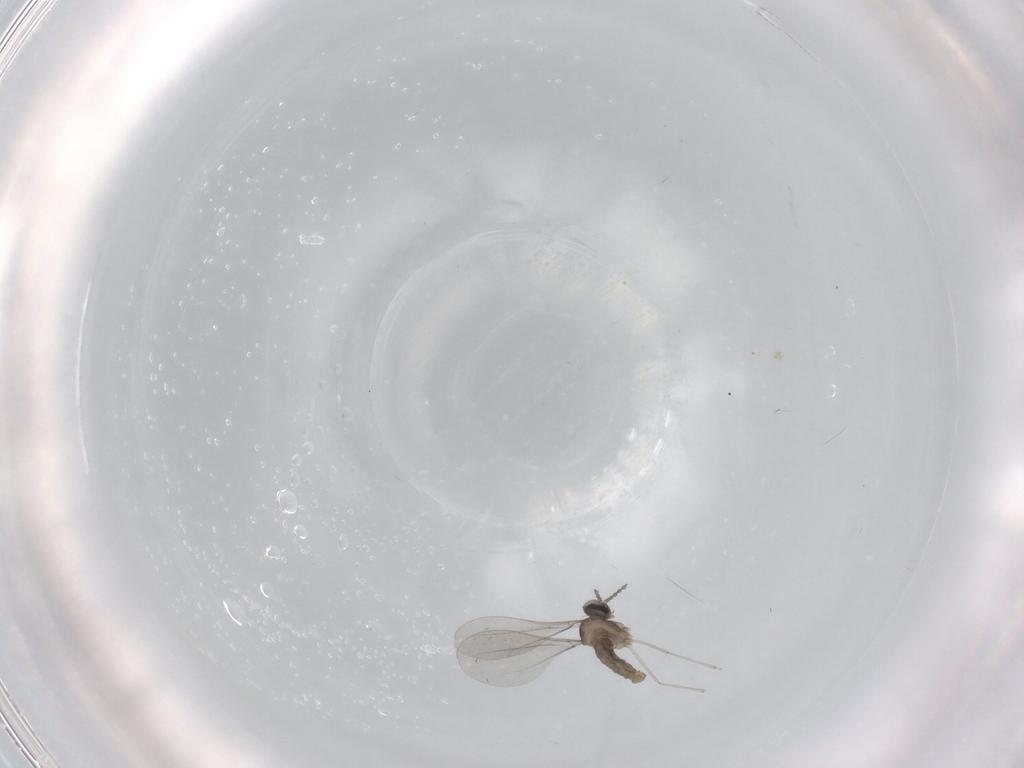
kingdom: Animalia
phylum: Arthropoda
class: Insecta
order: Diptera
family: Cecidomyiidae
